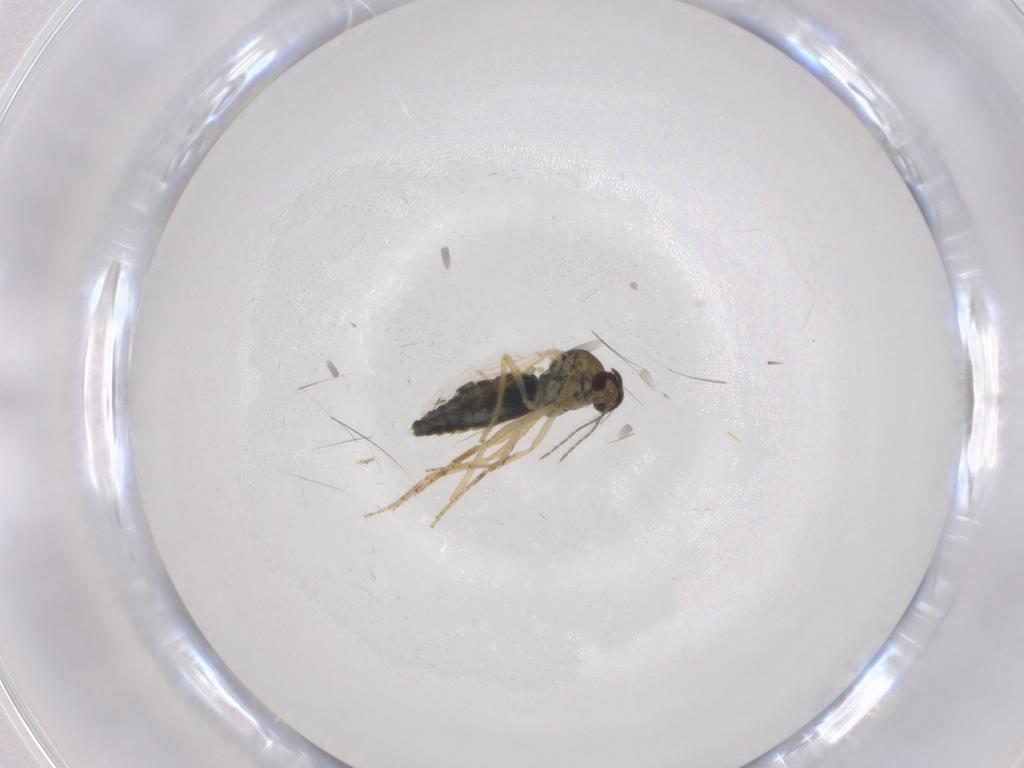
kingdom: Animalia
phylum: Arthropoda
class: Insecta
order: Diptera
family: Ceratopogonidae
